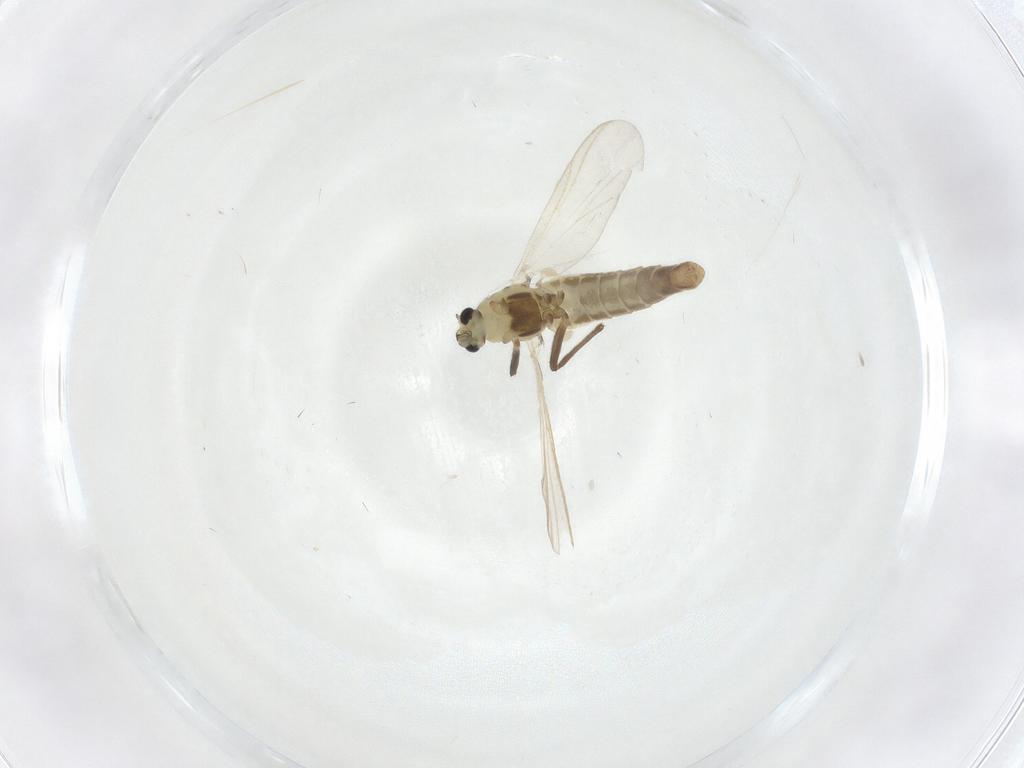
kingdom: Animalia
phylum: Arthropoda
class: Insecta
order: Diptera
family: Chironomidae
